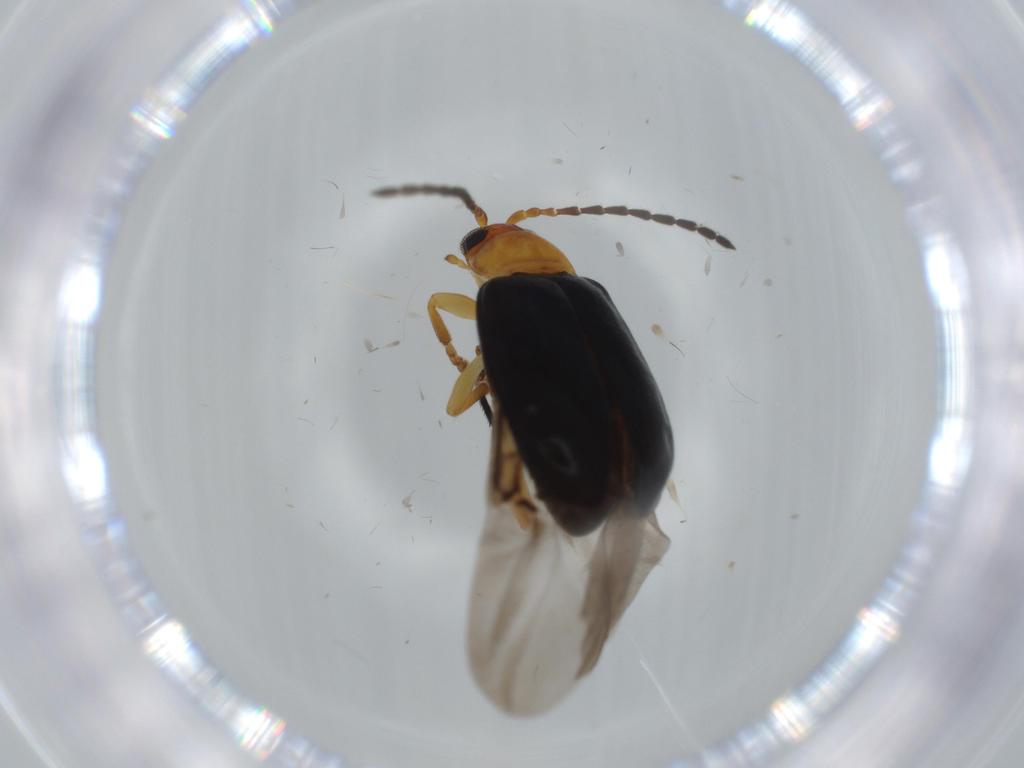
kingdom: Animalia
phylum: Arthropoda
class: Insecta
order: Coleoptera
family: Chrysomelidae
